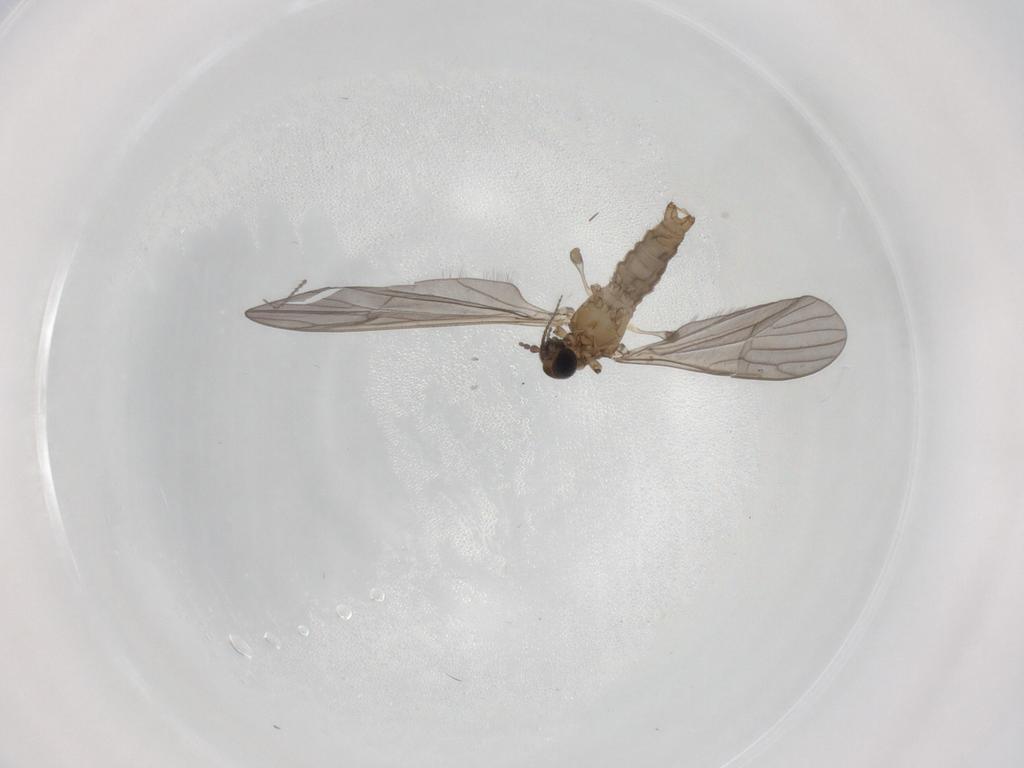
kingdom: Animalia
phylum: Arthropoda
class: Insecta
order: Diptera
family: Limoniidae
